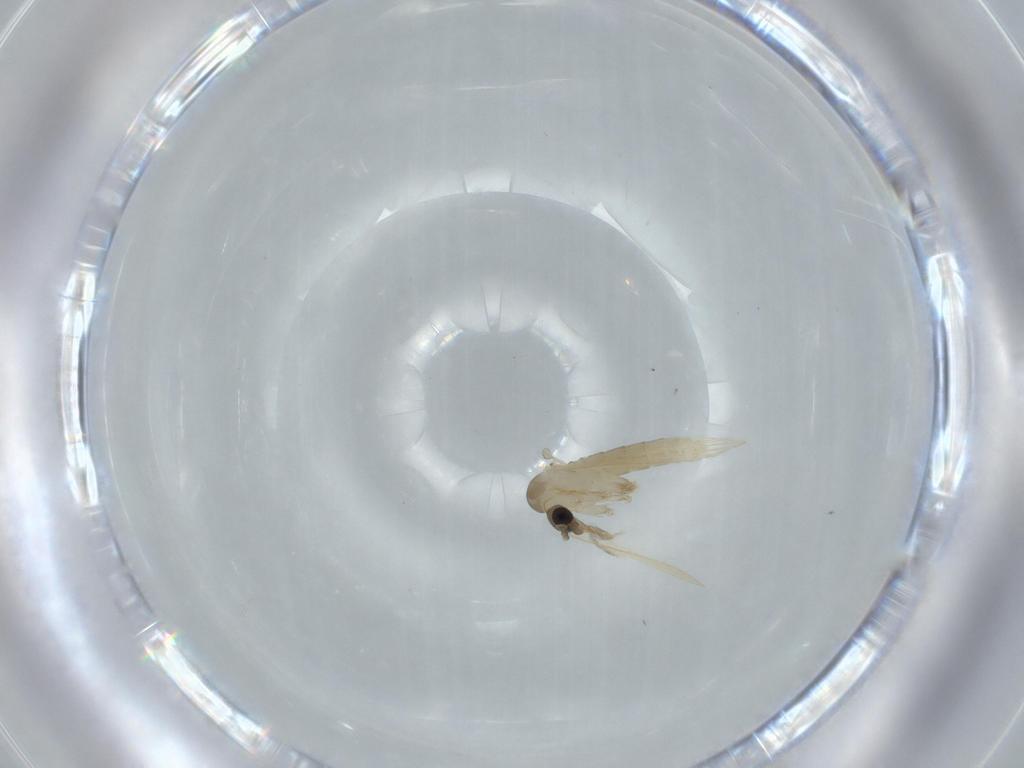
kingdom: Animalia
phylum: Arthropoda
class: Insecta
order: Diptera
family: Psychodidae
